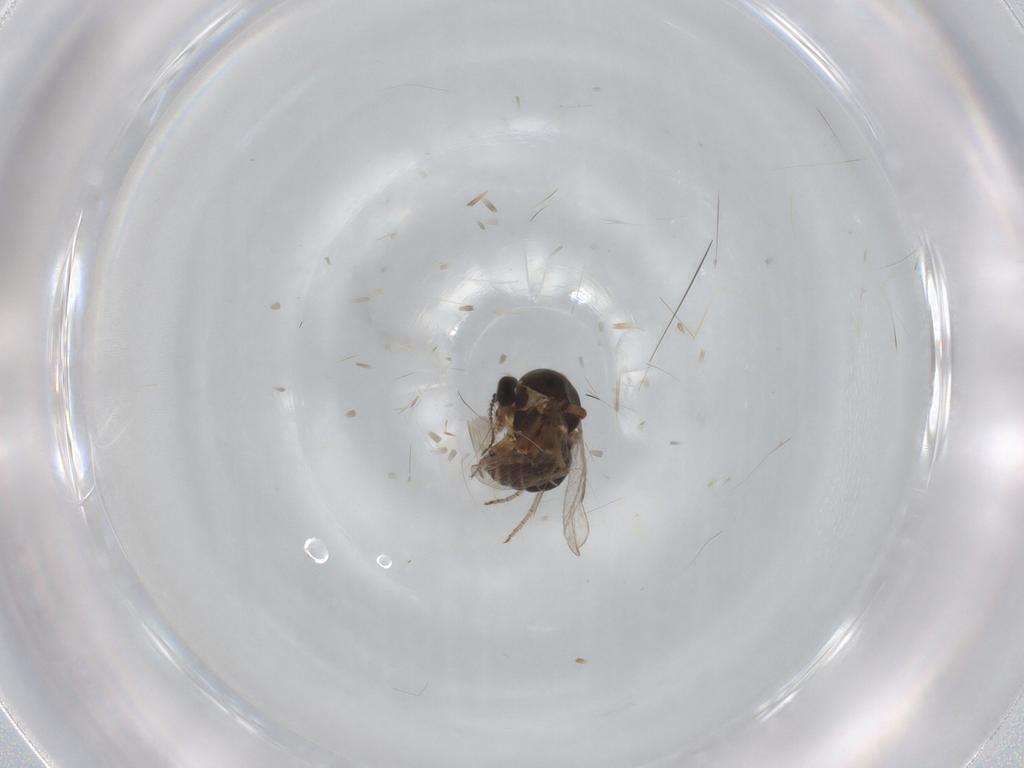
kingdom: Animalia
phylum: Arthropoda
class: Insecta
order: Diptera
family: Ceratopogonidae
